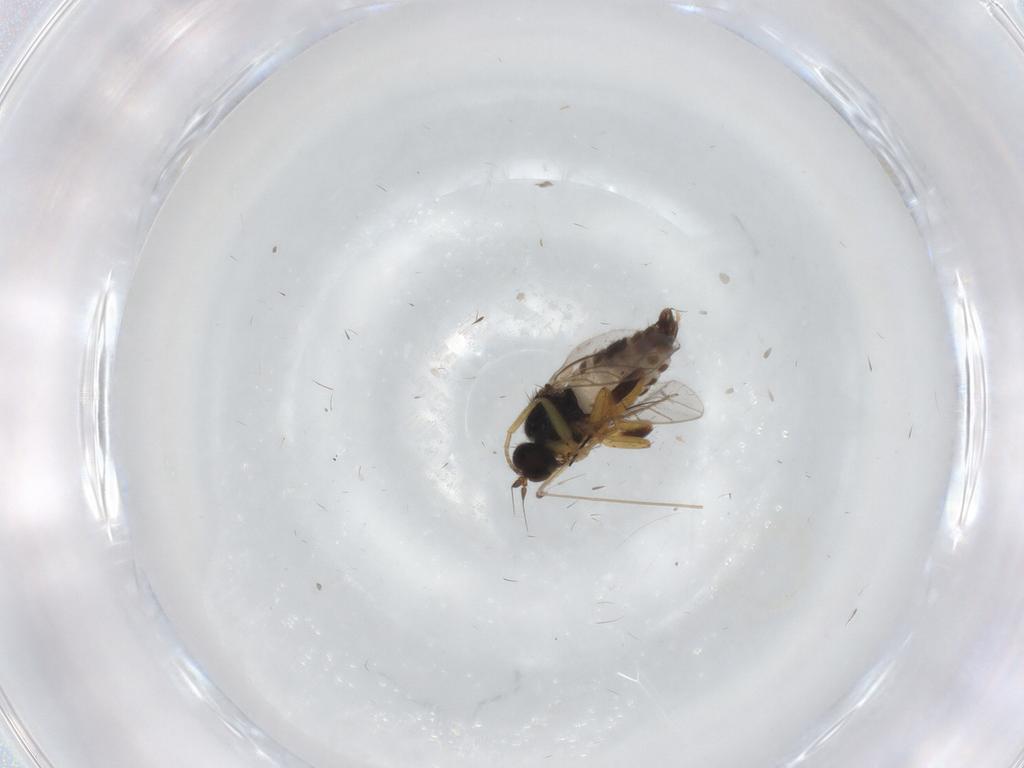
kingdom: Animalia
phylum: Arthropoda
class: Insecta
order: Diptera
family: Hybotidae
